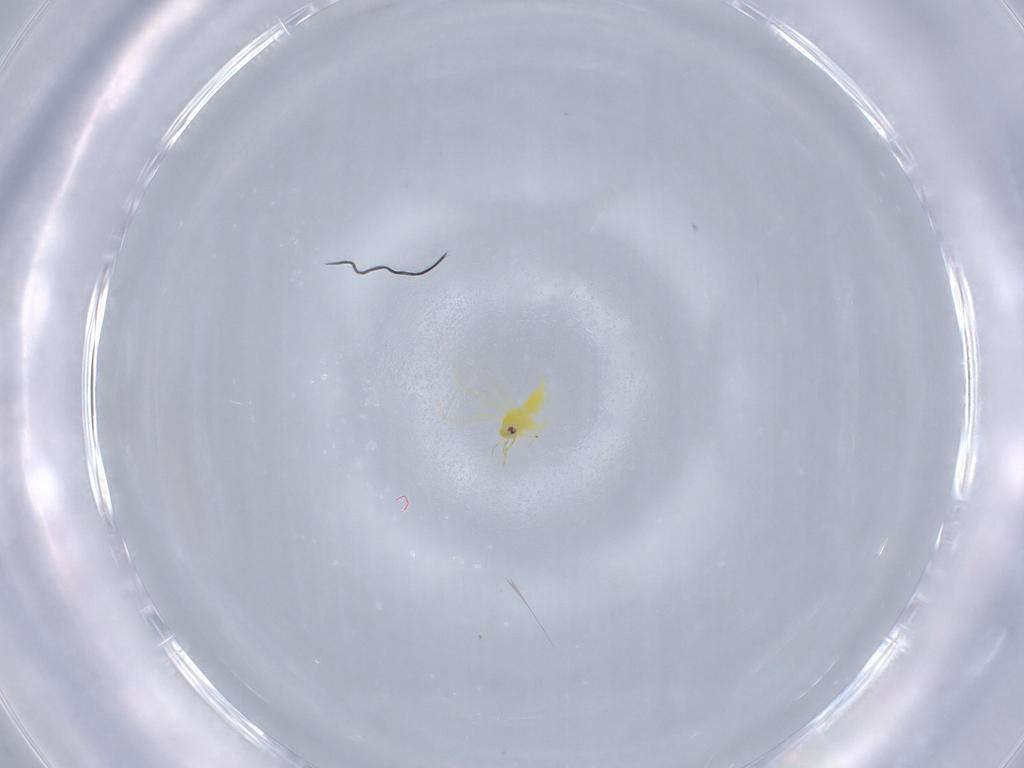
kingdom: Animalia
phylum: Arthropoda
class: Insecta
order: Hemiptera
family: Aleyrodidae
